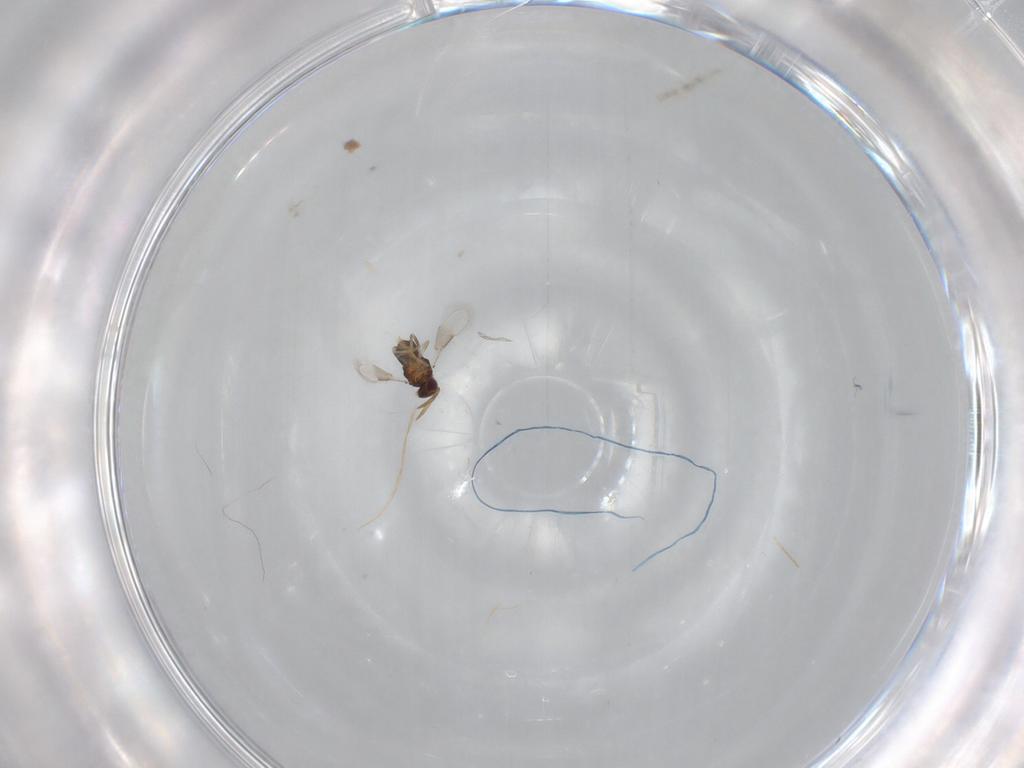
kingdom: Animalia
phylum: Arthropoda
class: Insecta
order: Hymenoptera
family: Aphelinidae
